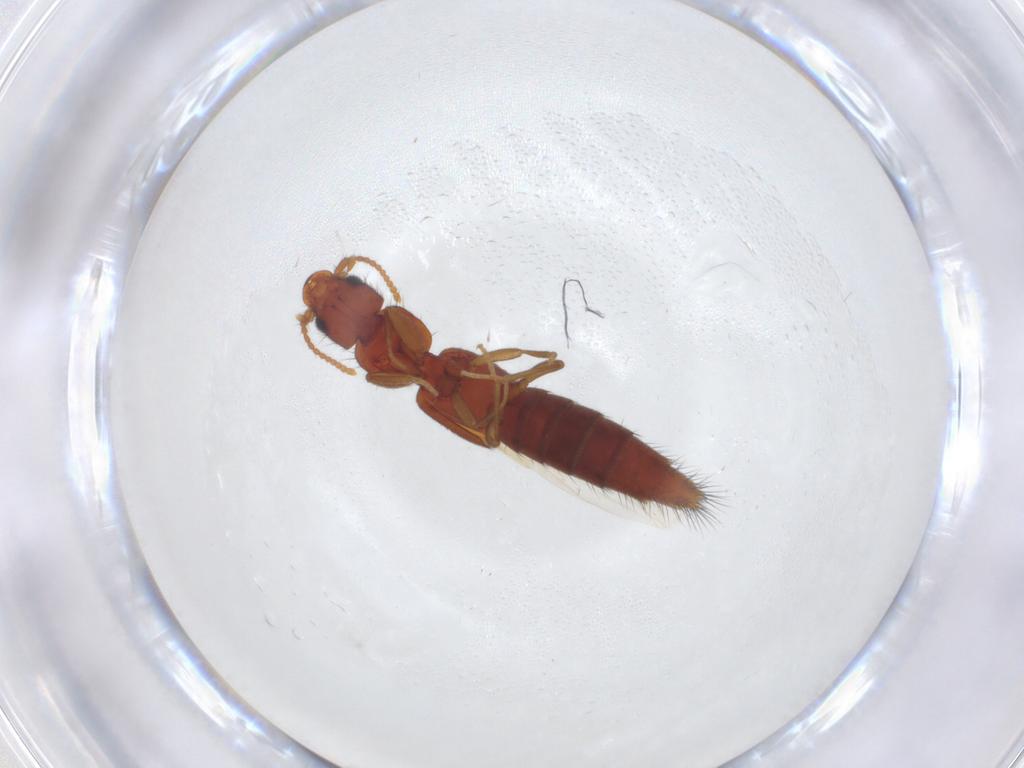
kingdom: Animalia
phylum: Arthropoda
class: Insecta
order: Coleoptera
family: Staphylinidae
